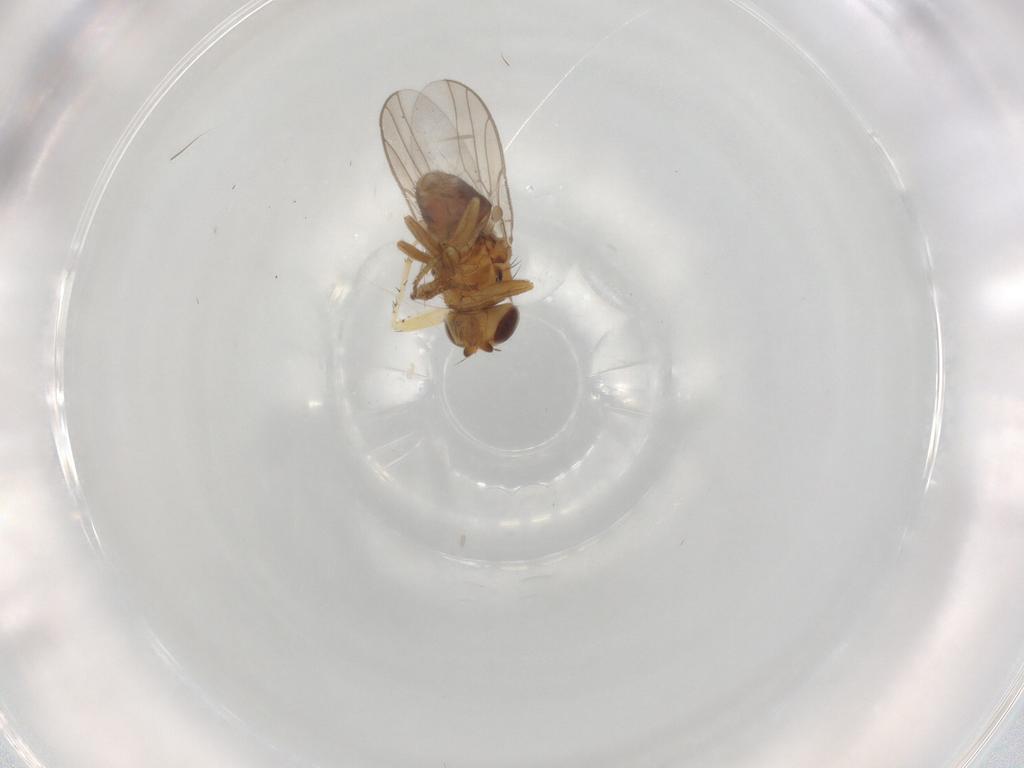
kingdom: Animalia
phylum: Arthropoda
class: Insecta
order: Diptera
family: Chloropidae
